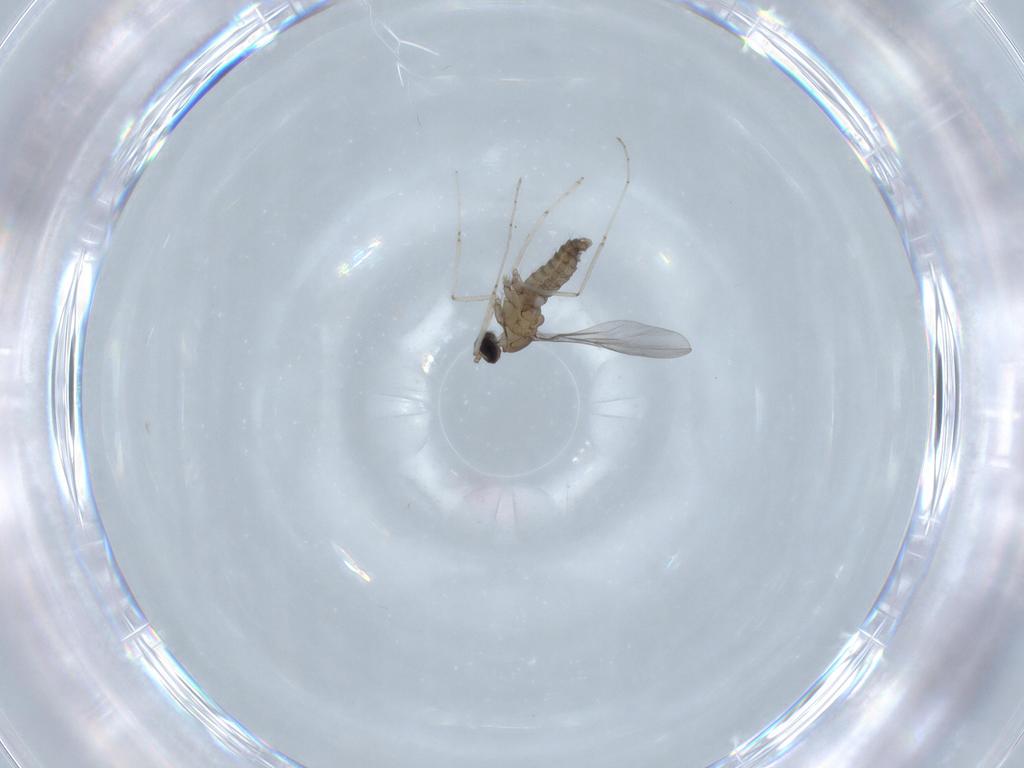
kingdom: Animalia
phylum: Arthropoda
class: Insecta
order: Diptera
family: Cecidomyiidae
